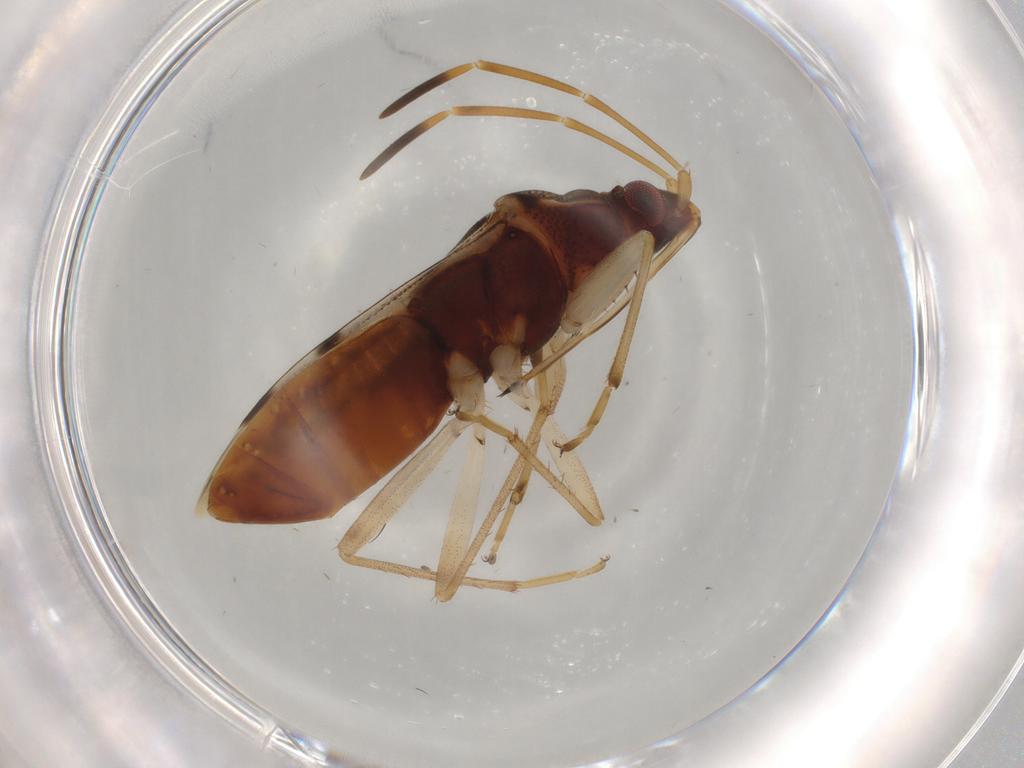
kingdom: Animalia
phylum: Arthropoda
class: Insecta
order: Hemiptera
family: Rhyparochromidae
